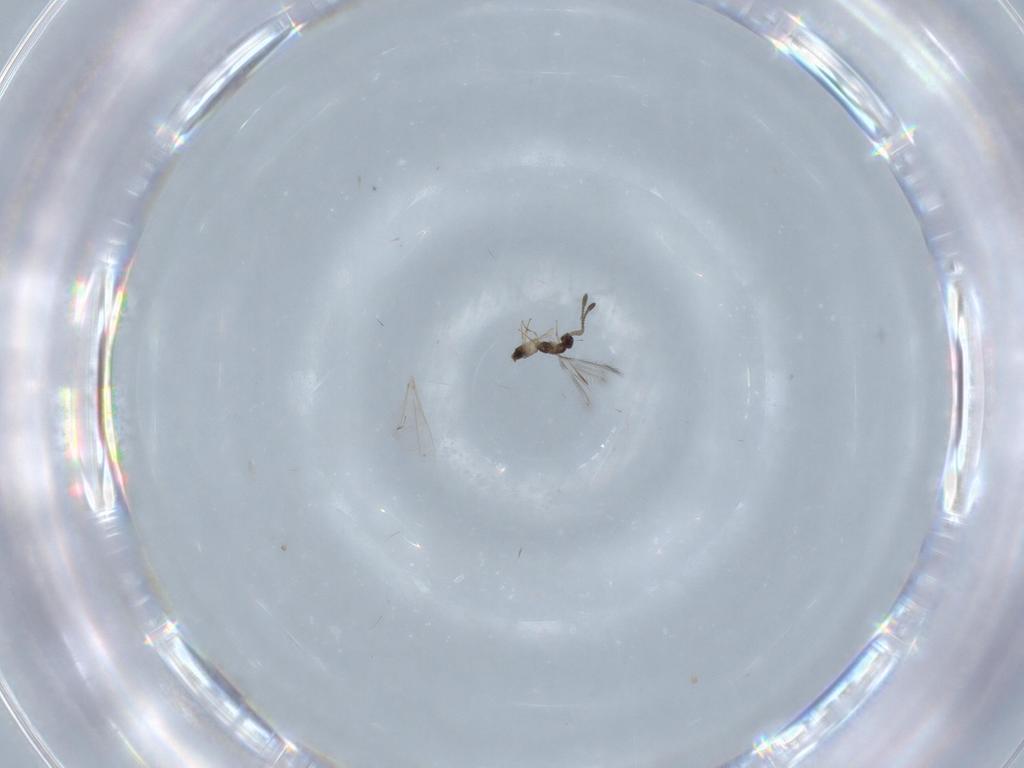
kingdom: Animalia
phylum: Arthropoda
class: Insecta
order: Hymenoptera
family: Mymaridae
